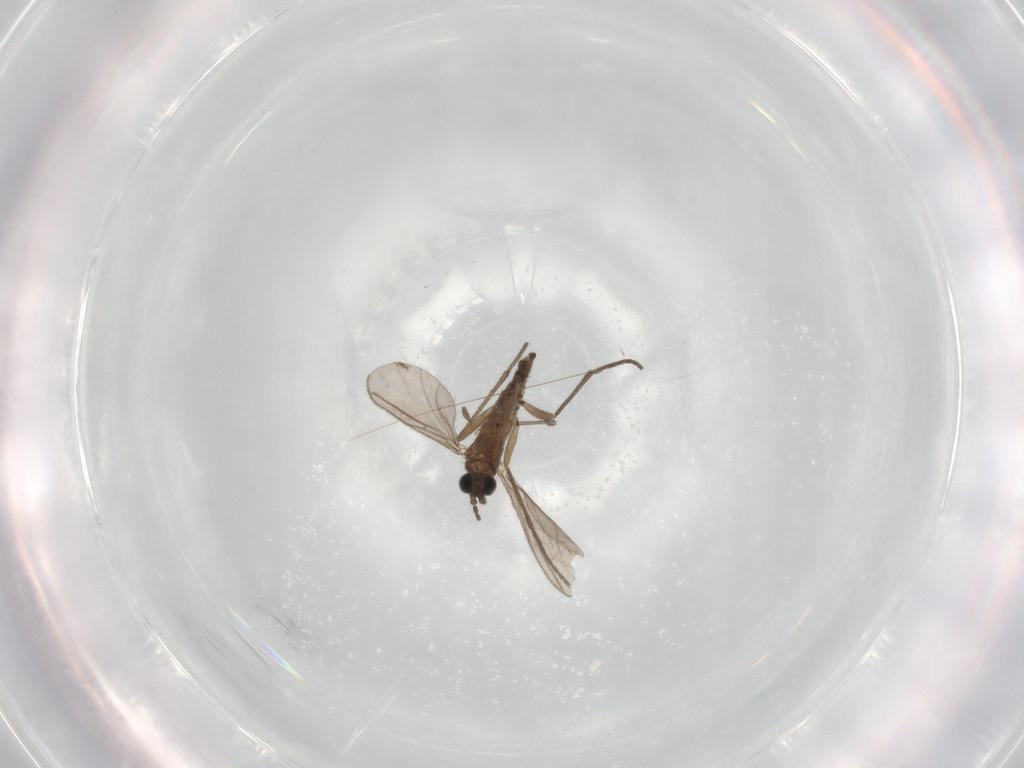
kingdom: Animalia
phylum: Arthropoda
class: Insecta
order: Diptera
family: Sciaridae
